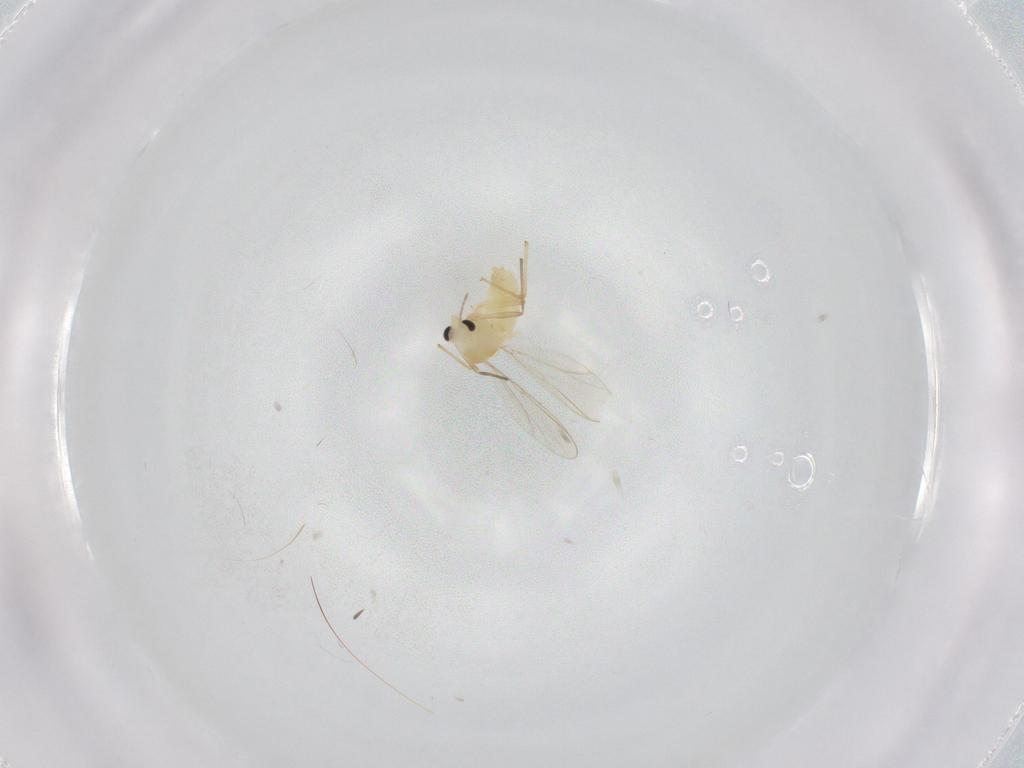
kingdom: Animalia
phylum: Arthropoda
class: Insecta
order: Diptera
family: Chironomidae
